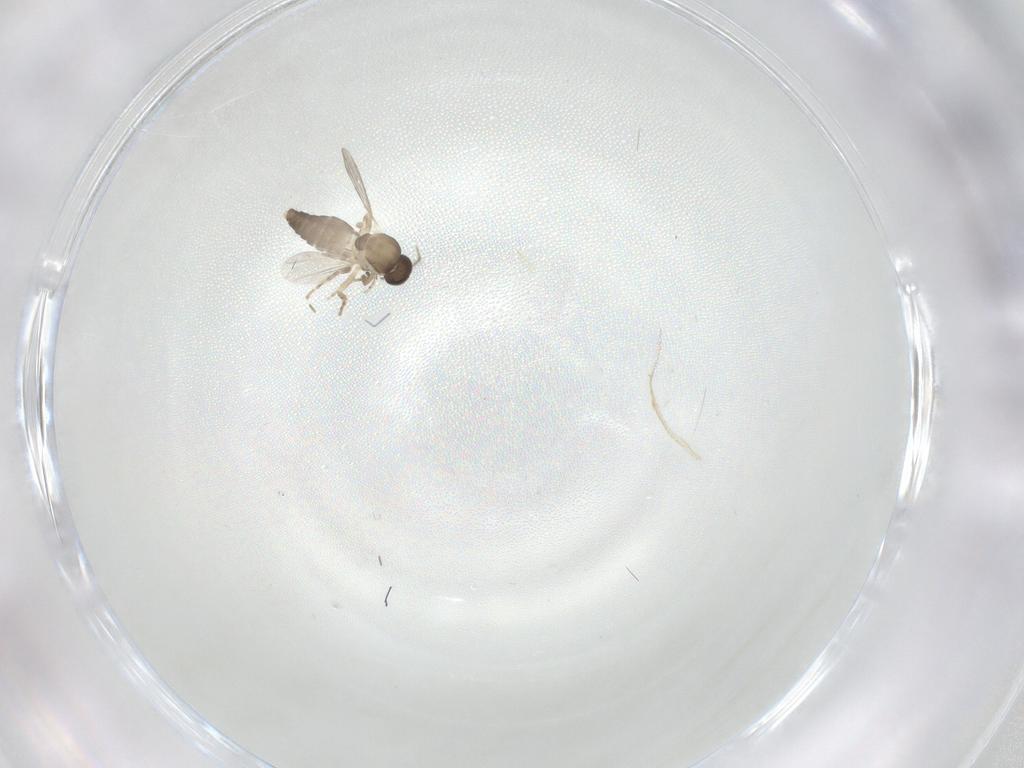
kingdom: Animalia
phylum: Arthropoda
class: Insecta
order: Diptera
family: Ceratopogonidae
